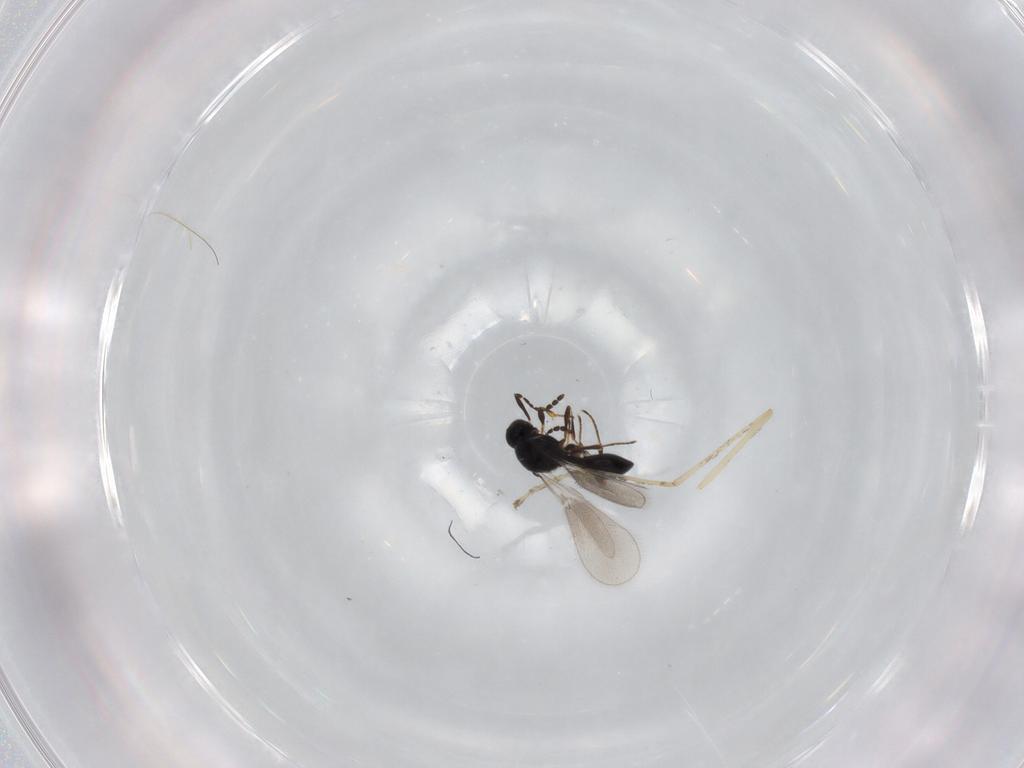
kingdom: Animalia
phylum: Arthropoda
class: Insecta
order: Hymenoptera
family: Platygastridae
